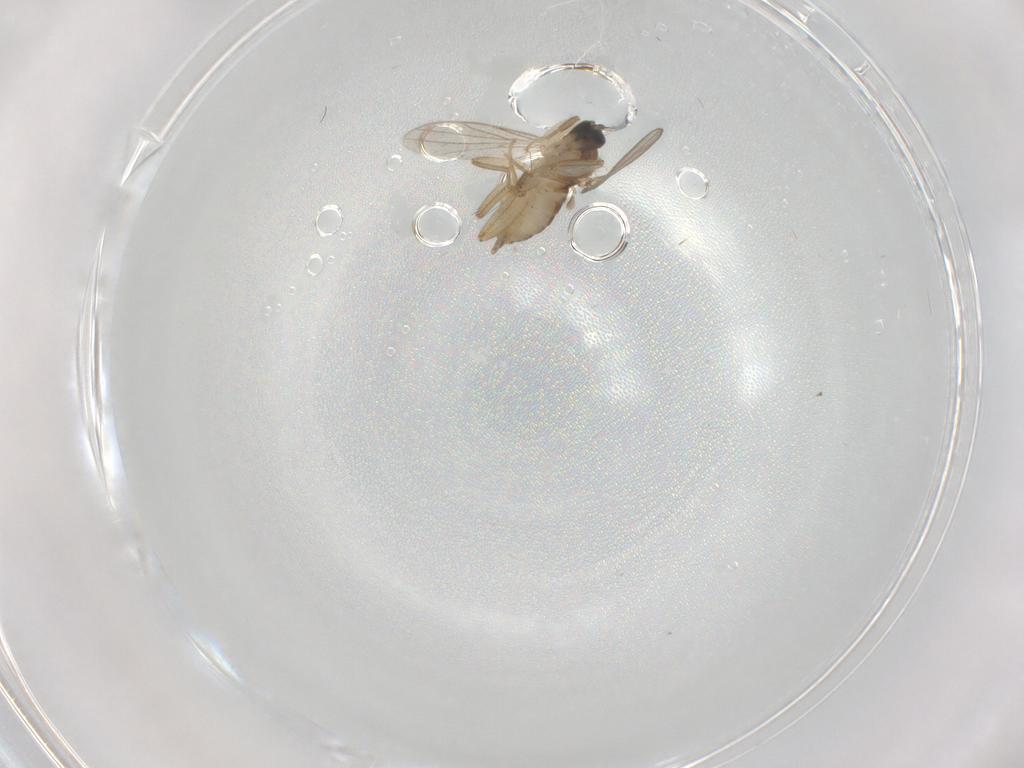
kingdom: Animalia
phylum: Arthropoda
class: Insecta
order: Diptera
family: Hybotidae
